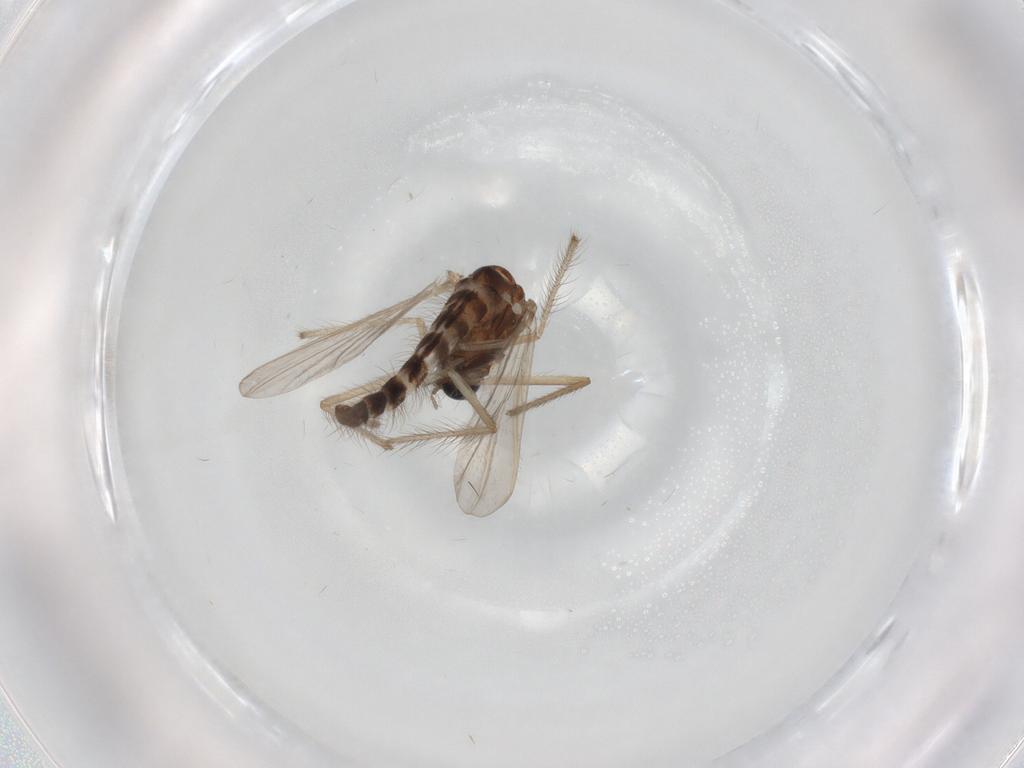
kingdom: Animalia
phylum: Arthropoda
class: Insecta
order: Diptera
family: Chironomidae
